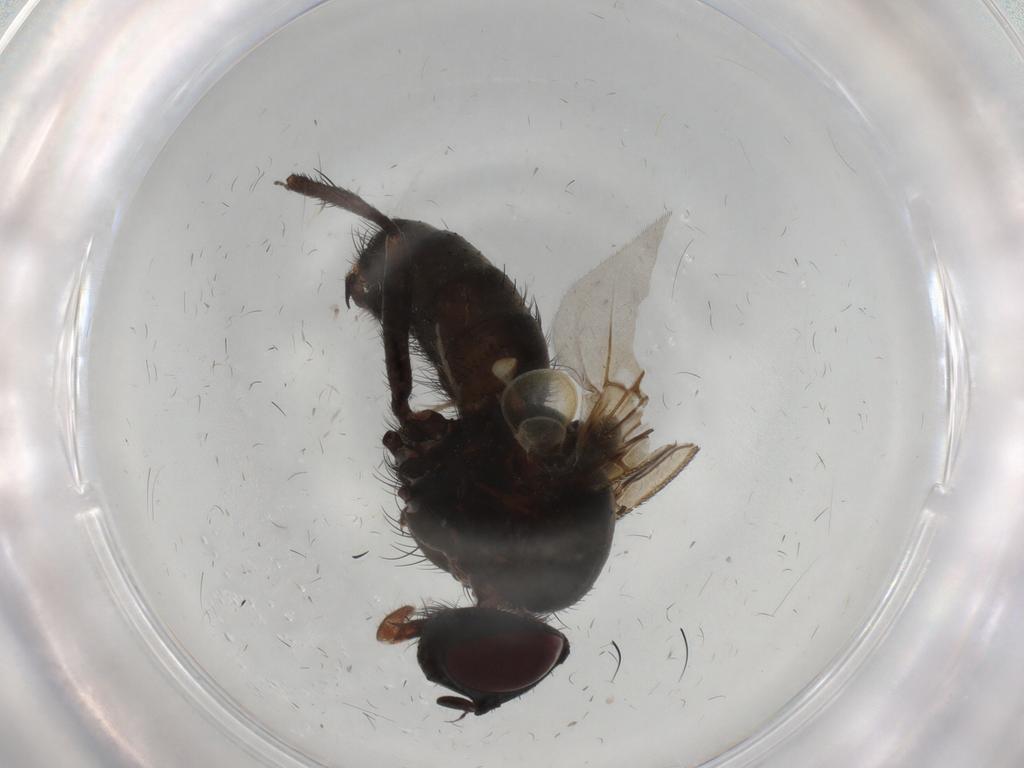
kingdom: Animalia
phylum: Arthropoda
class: Insecta
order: Diptera
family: Calliphoridae
